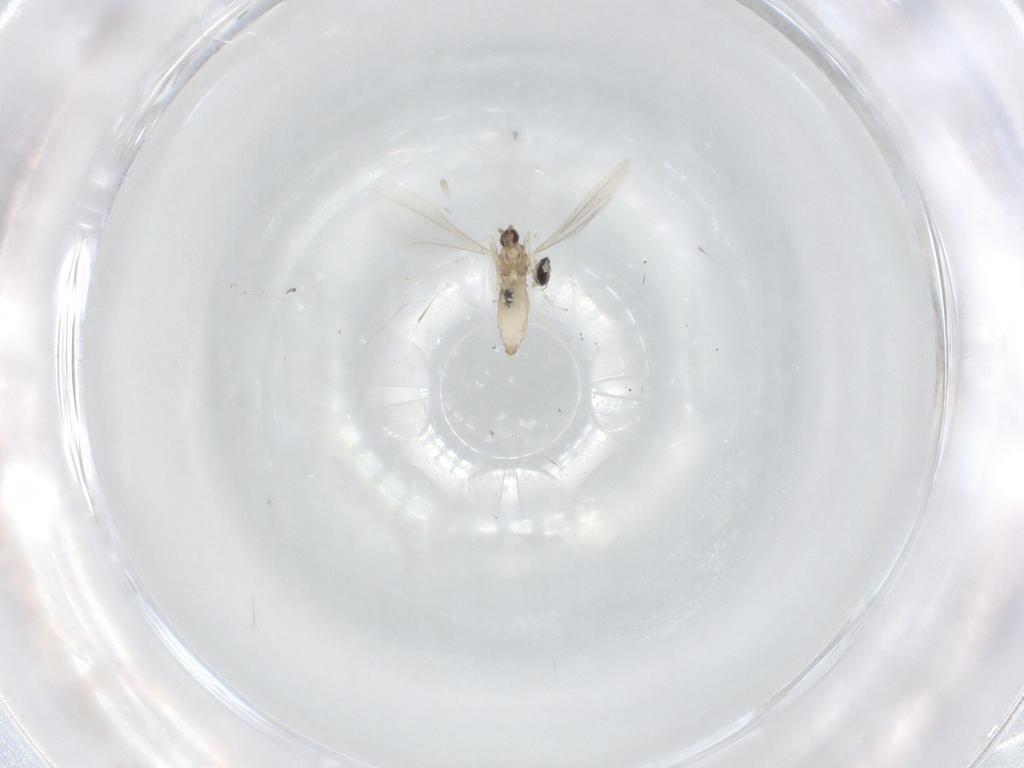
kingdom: Animalia
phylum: Arthropoda
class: Insecta
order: Diptera
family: Cecidomyiidae
